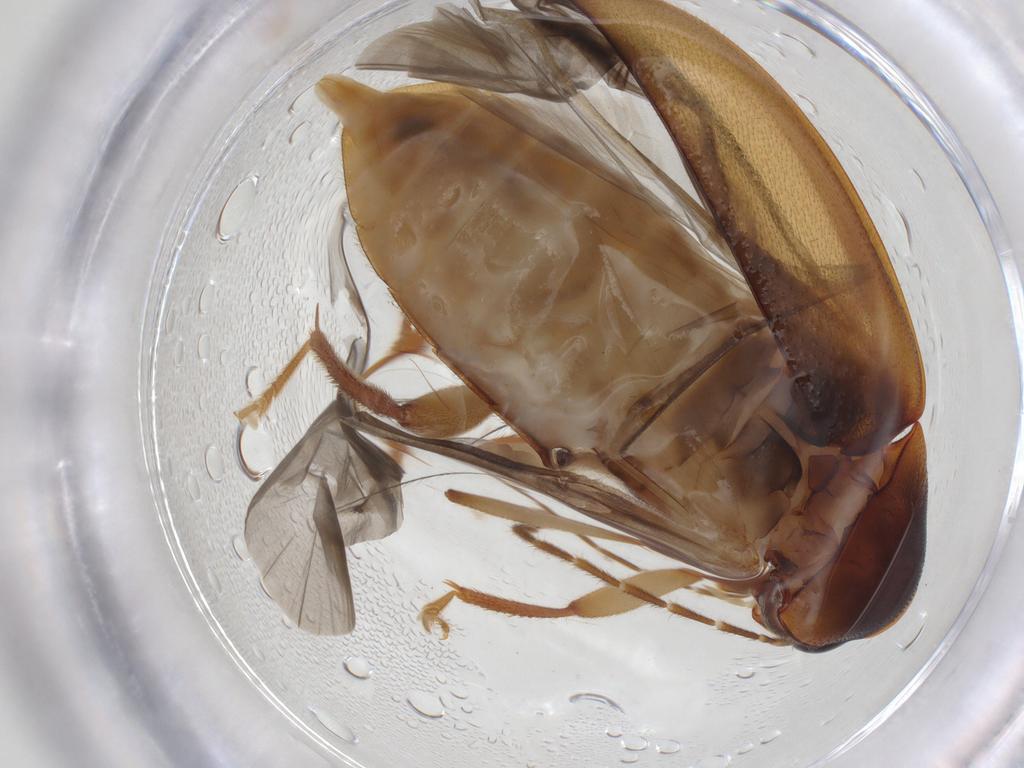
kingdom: Animalia
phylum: Arthropoda
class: Insecta
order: Coleoptera
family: Ptilodactylidae
